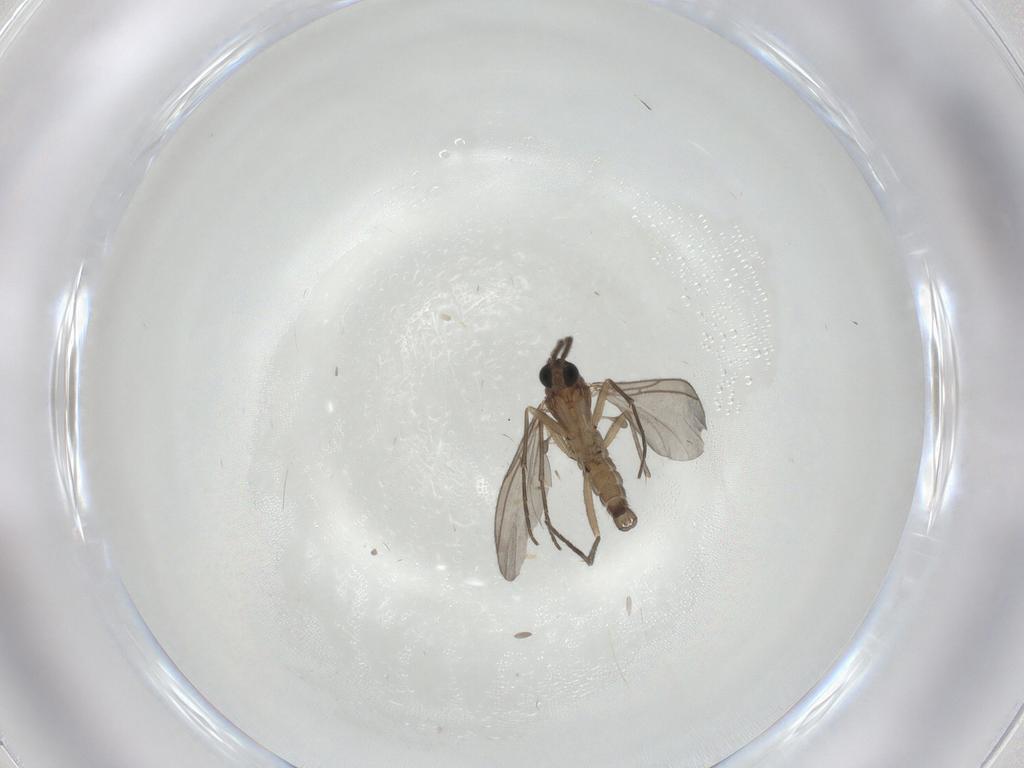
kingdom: Animalia
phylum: Arthropoda
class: Insecta
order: Diptera
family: Sciaridae
